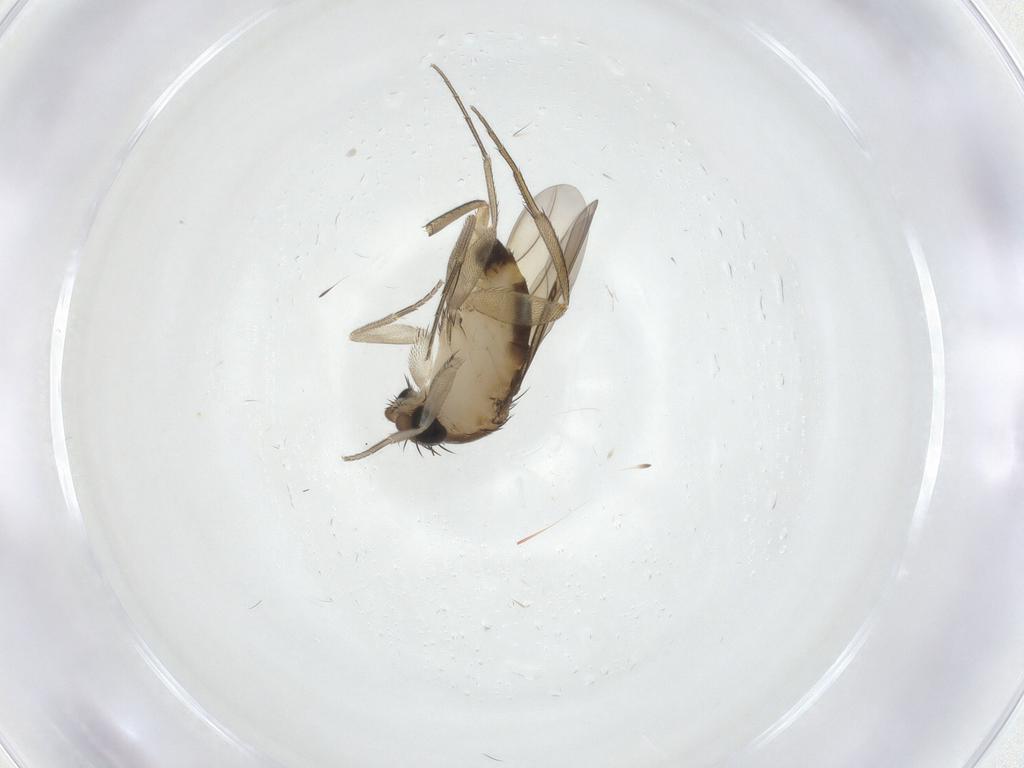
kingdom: Animalia
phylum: Arthropoda
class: Insecta
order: Diptera
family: Phoridae
